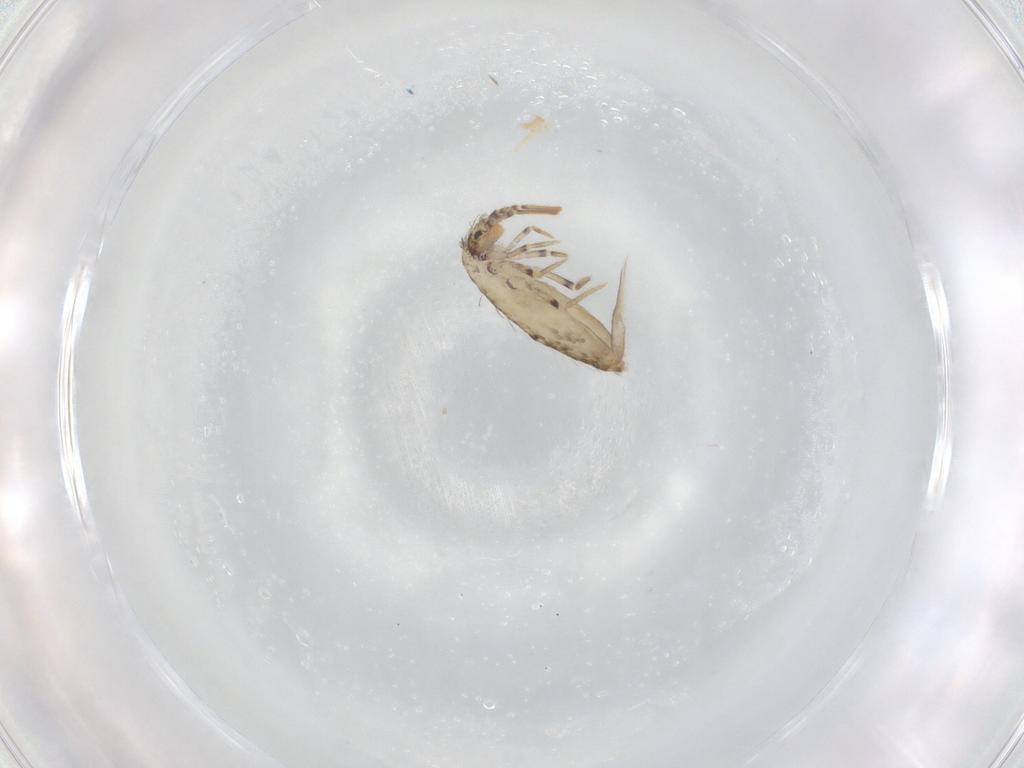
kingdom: Animalia
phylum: Arthropoda
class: Collembola
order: Entomobryomorpha
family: Entomobryidae
